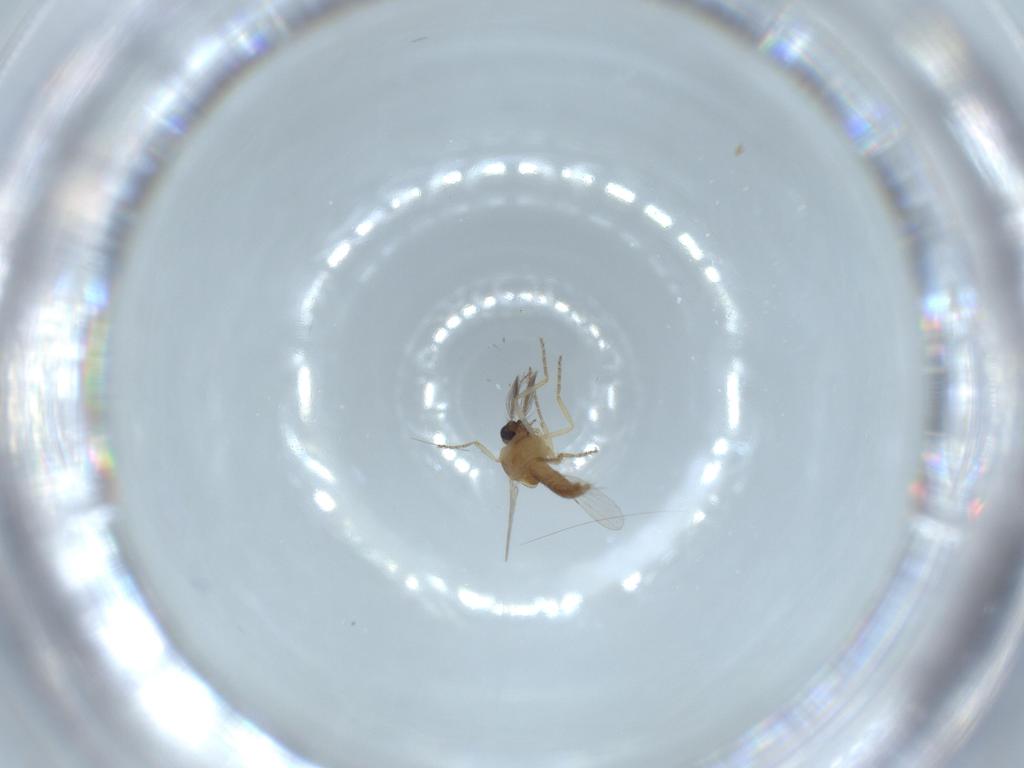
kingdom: Animalia
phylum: Arthropoda
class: Insecta
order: Diptera
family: Ceratopogonidae
